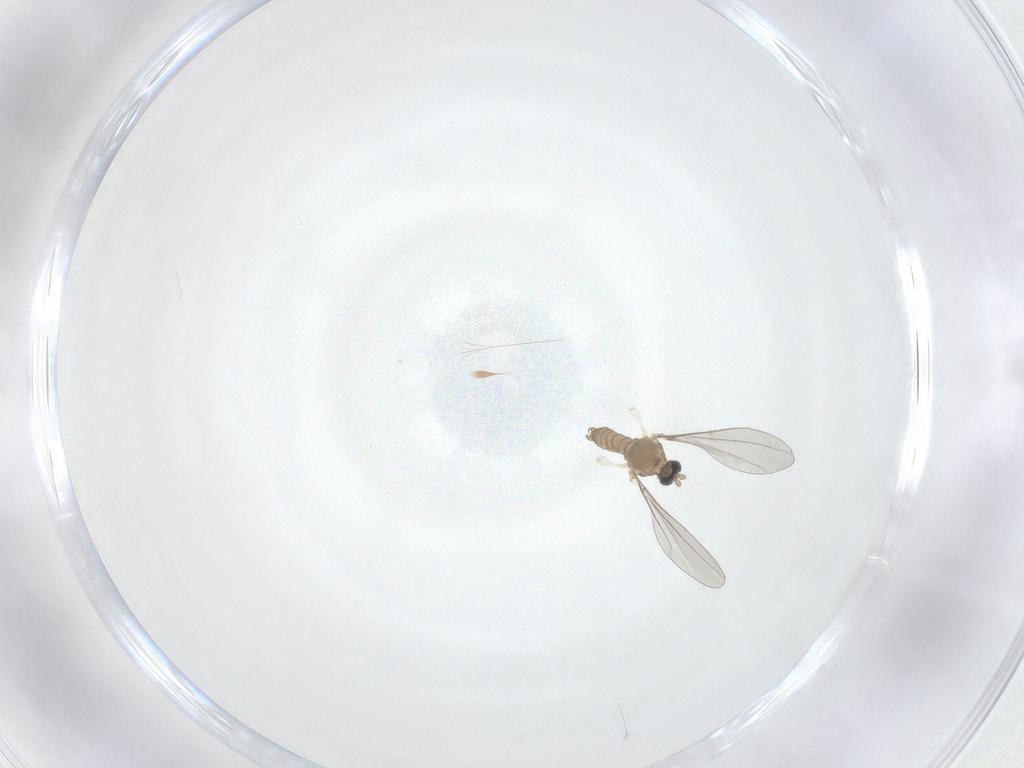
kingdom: Animalia
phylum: Arthropoda
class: Insecta
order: Diptera
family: Cecidomyiidae
